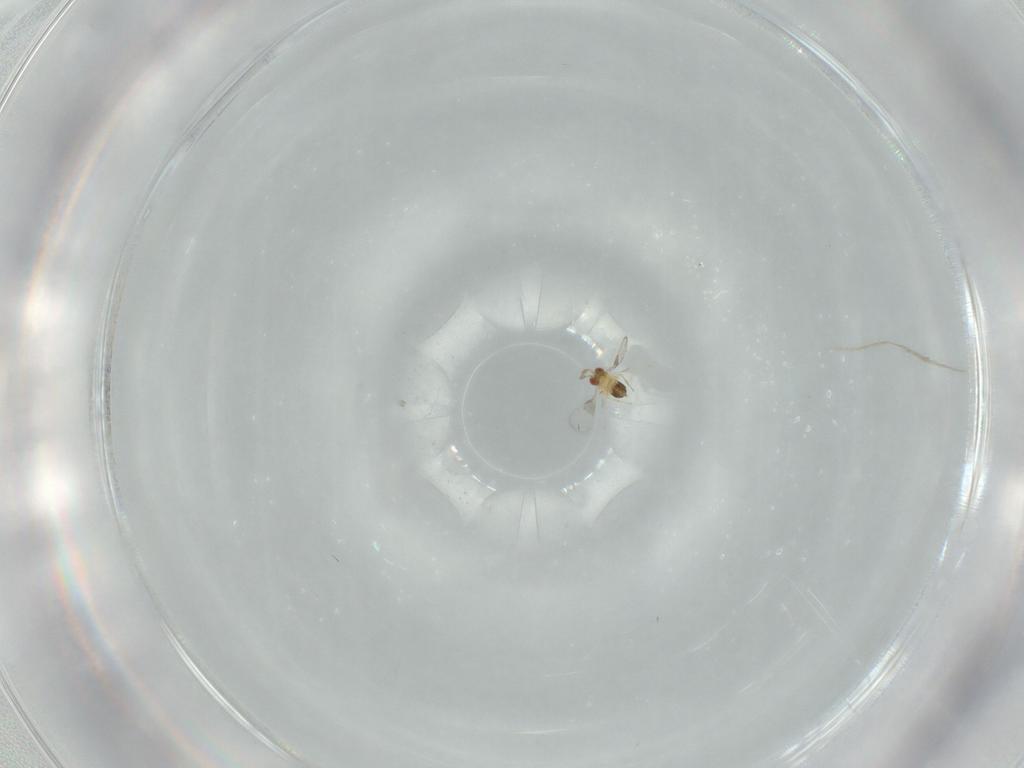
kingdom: Animalia
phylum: Arthropoda
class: Insecta
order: Hymenoptera
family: Trichogrammatidae
